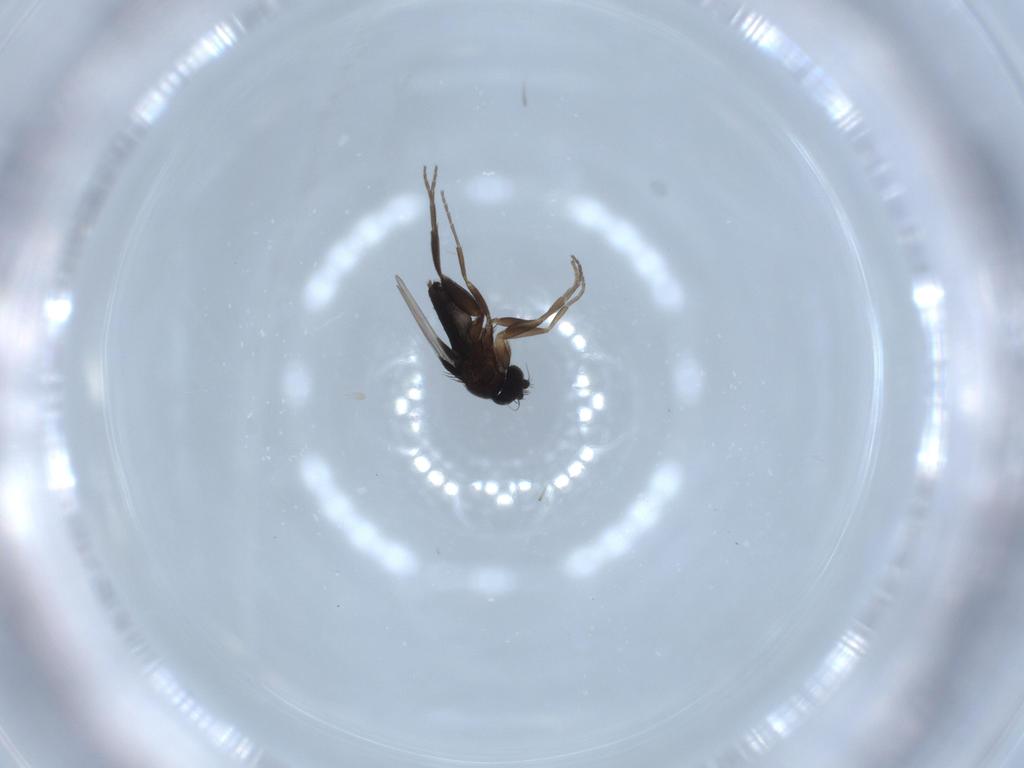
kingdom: Animalia
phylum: Arthropoda
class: Insecta
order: Diptera
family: Phoridae
